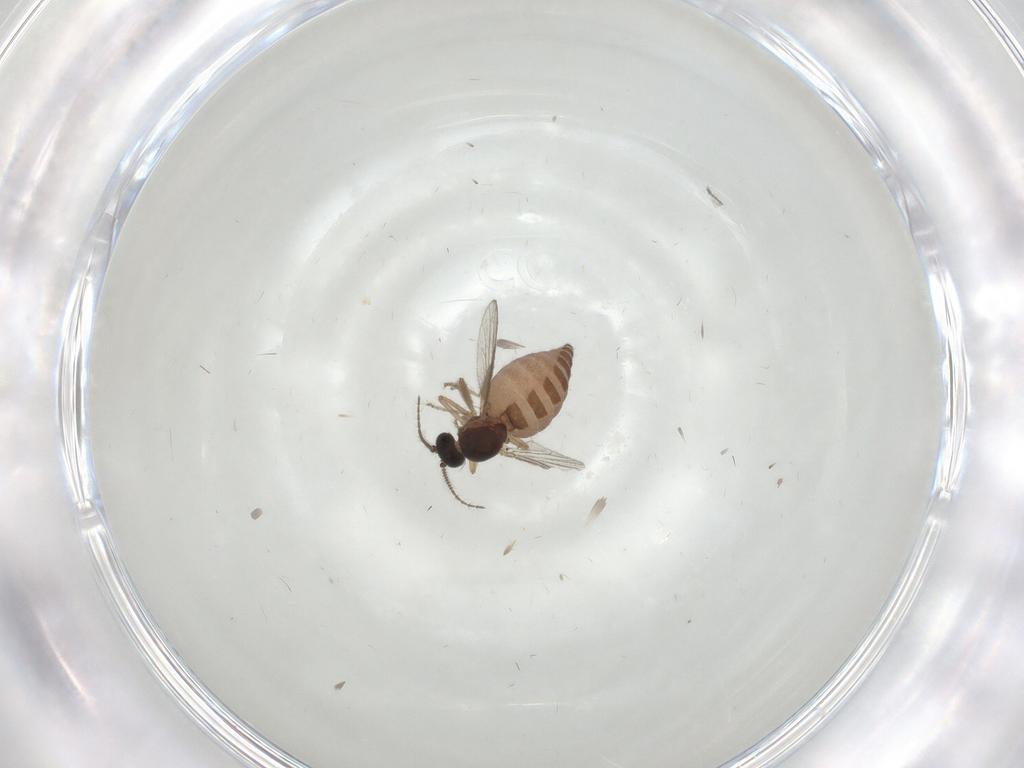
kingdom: Animalia
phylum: Arthropoda
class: Insecta
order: Diptera
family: Ceratopogonidae
